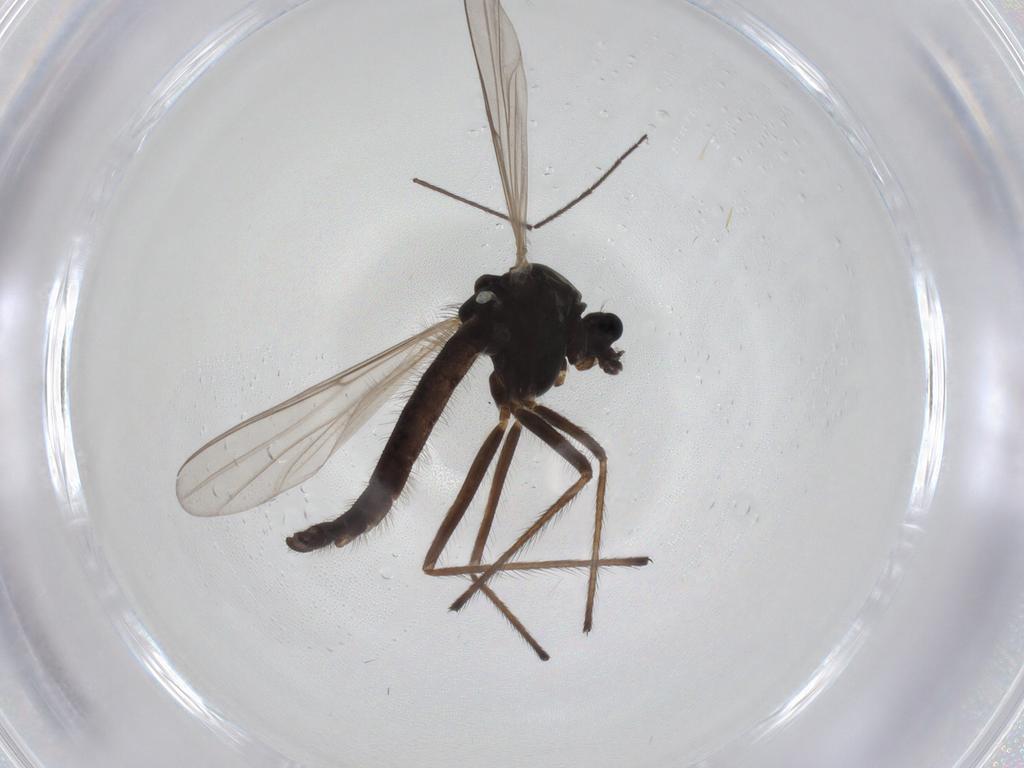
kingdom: Animalia
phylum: Arthropoda
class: Insecta
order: Diptera
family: Chironomidae
